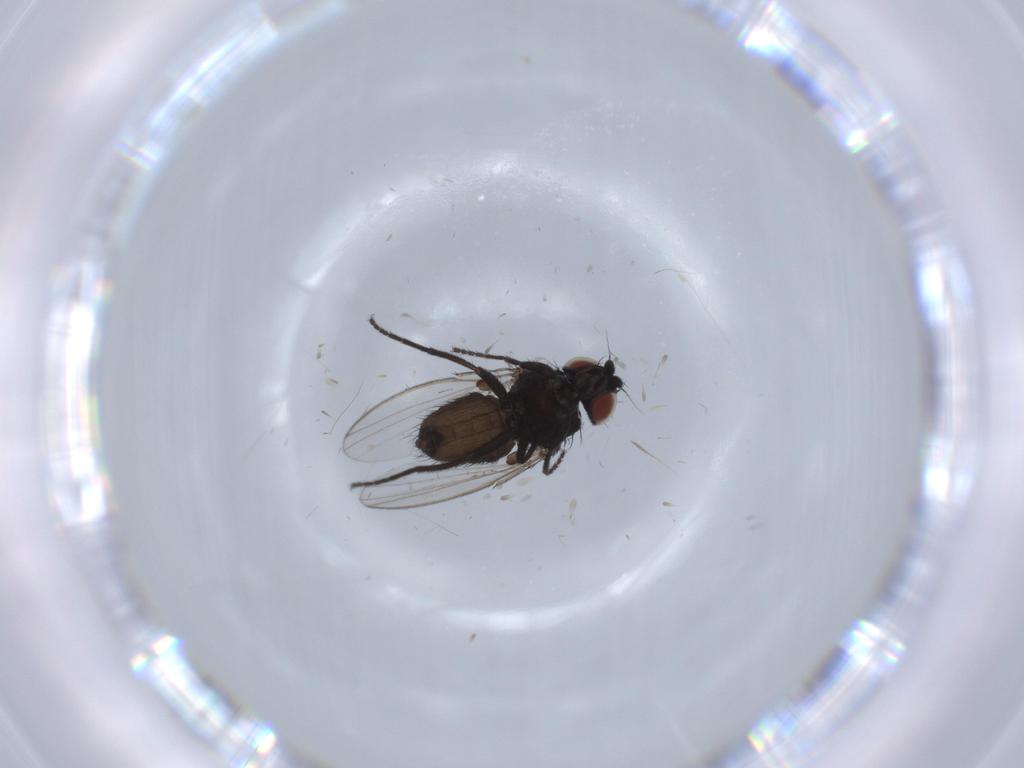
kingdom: Animalia
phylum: Arthropoda
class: Insecta
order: Diptera
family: Milichiidae
